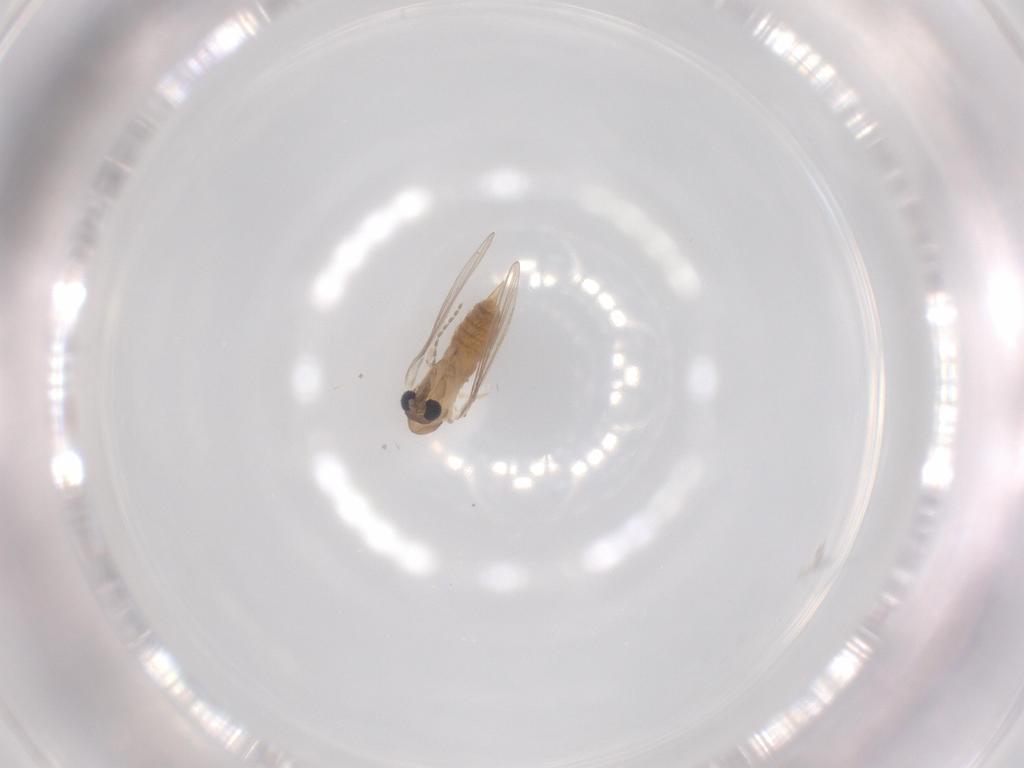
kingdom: Animalia
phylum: Arthropoda
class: Insecta
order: Diptera
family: Psychodidae
